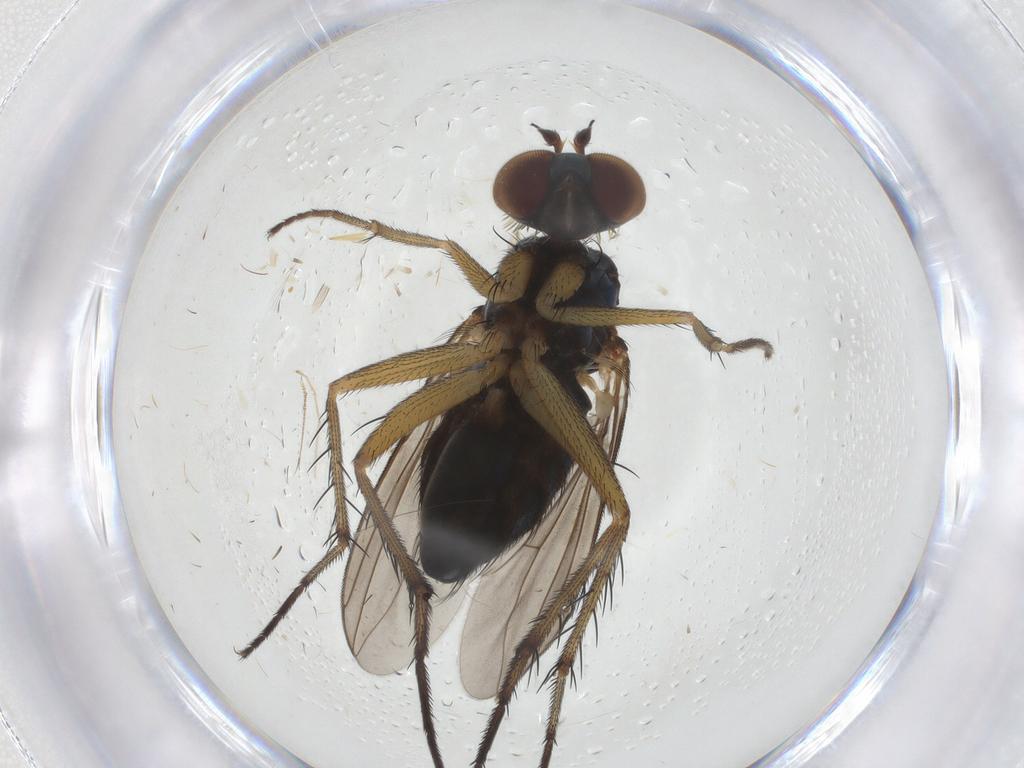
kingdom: Animalia
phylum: Arthropoda
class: Insecta
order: Diptera
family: Dolichopodidae
